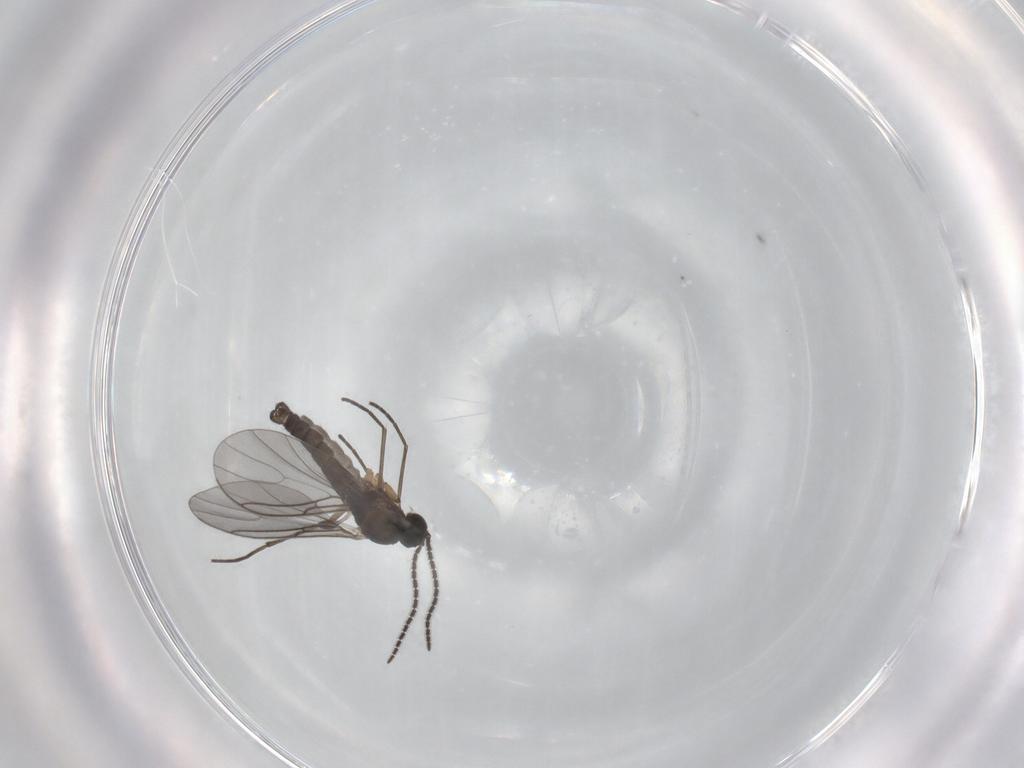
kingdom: Animalia
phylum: Arthropoda
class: Insecta
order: Diptera
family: Sciaridae
